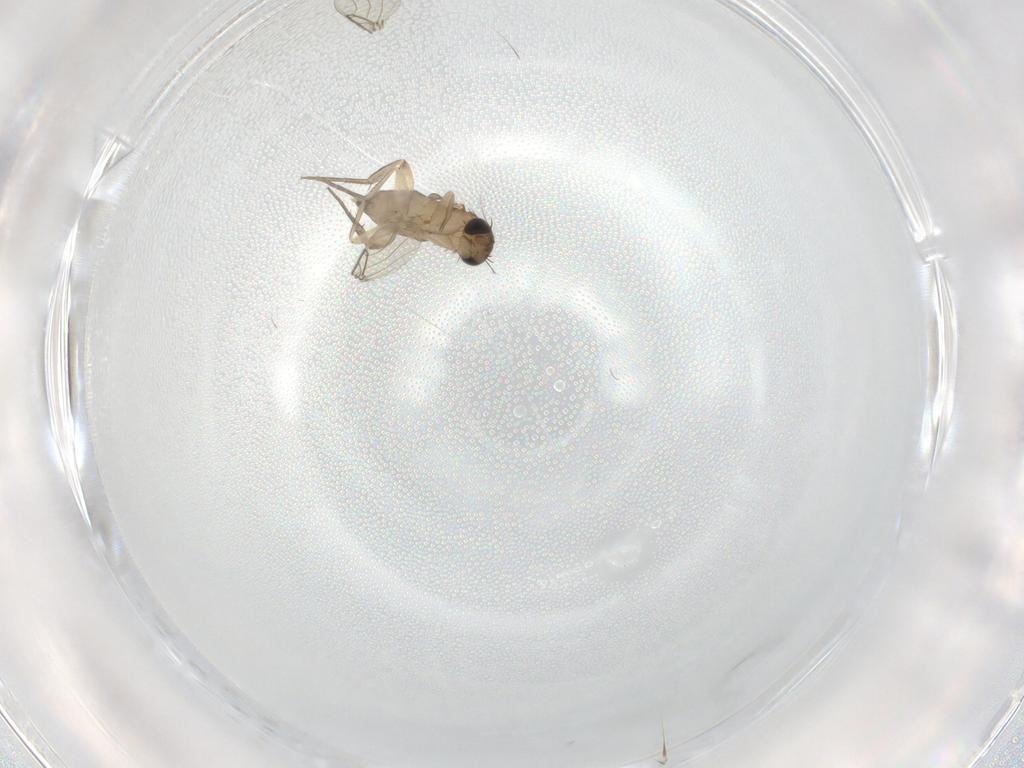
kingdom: Animalia
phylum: Arthropoda
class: Insecta
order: Diptera
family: Phoridae
